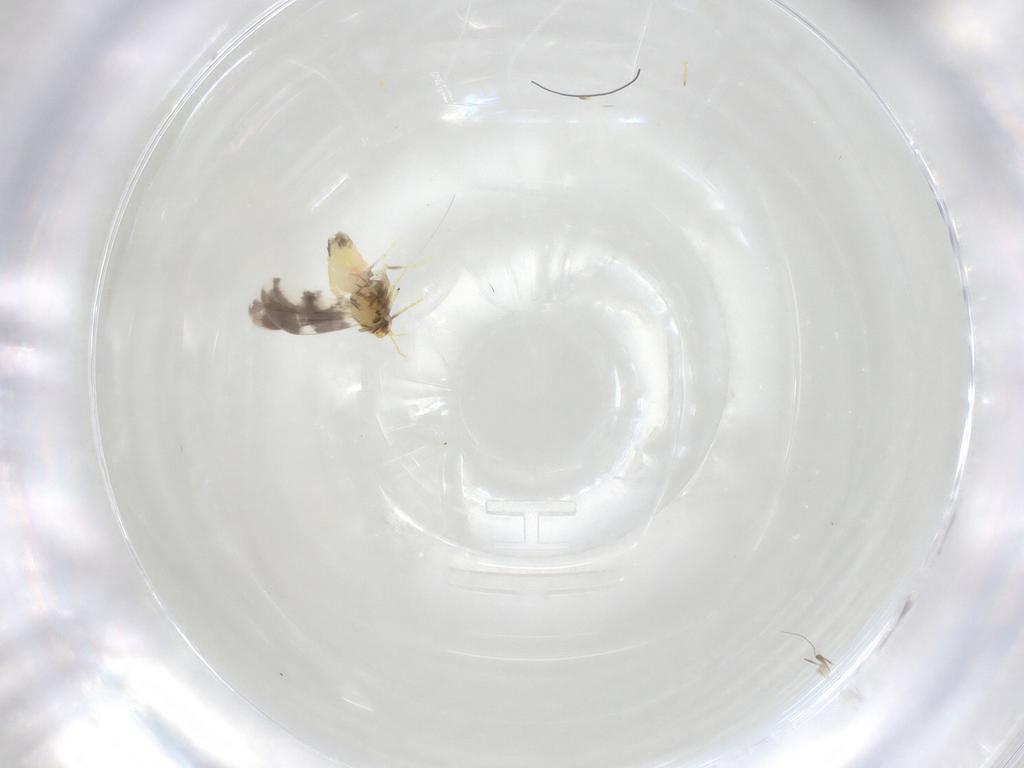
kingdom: Animalia
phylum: Arthropoda
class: Insecta
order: Hemiptera
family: Aleyrodidae
